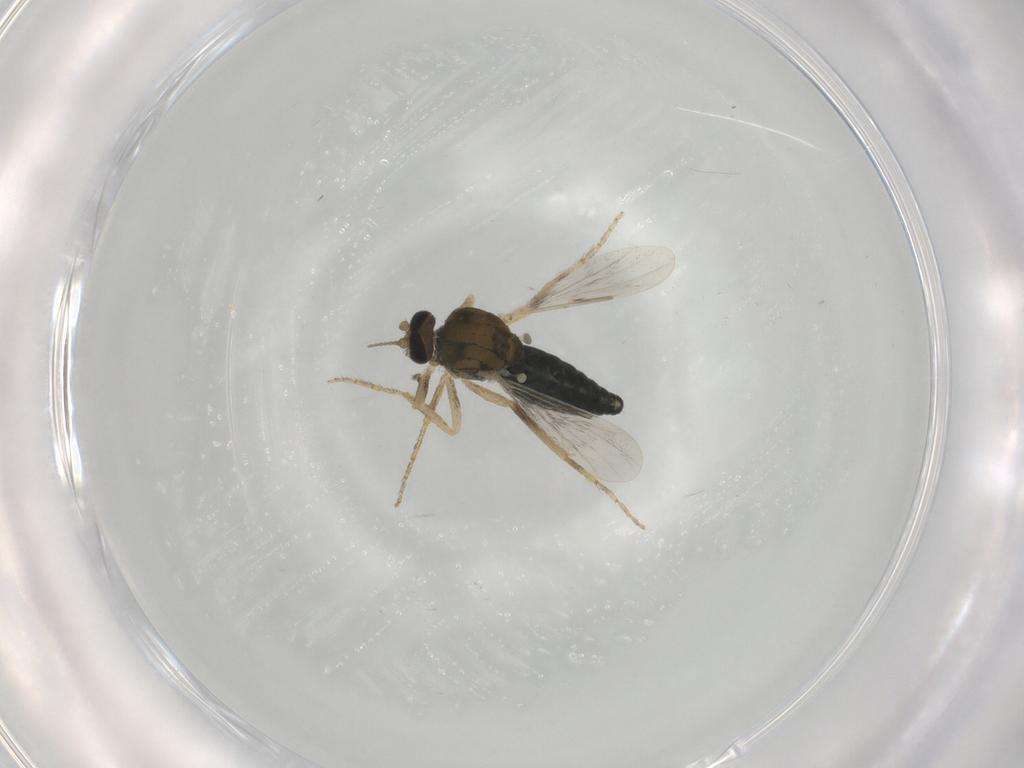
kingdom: Animalia
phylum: Arthropoda
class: Insecta
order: Diptera
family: Ceratopogonidae
